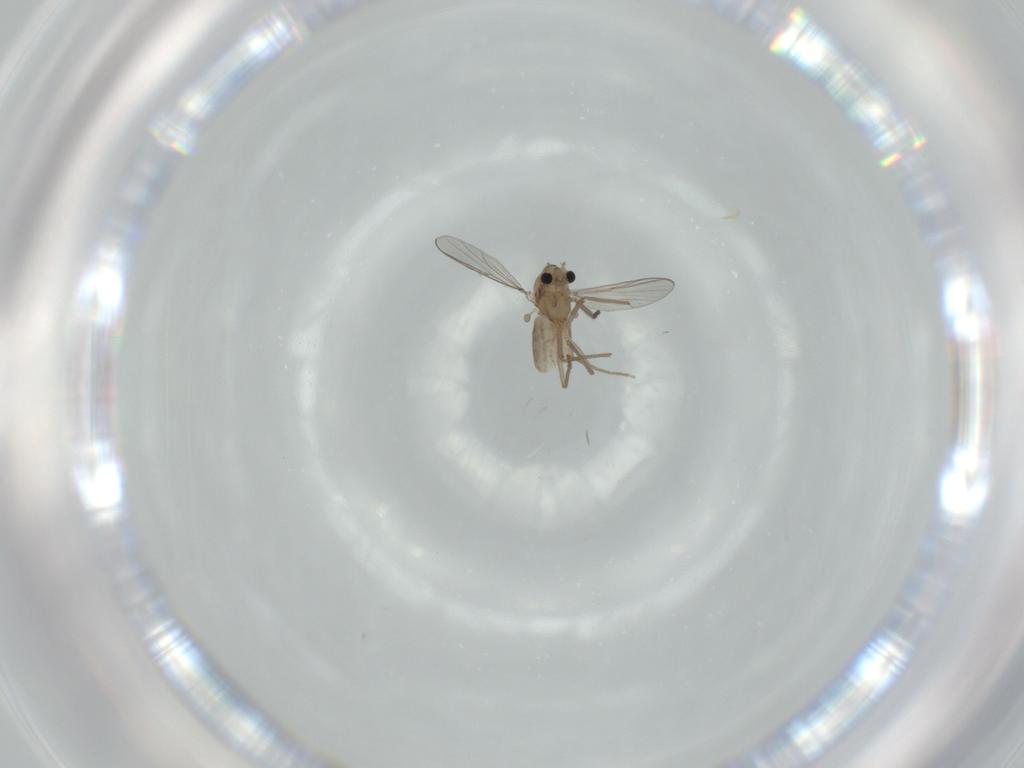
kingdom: Animalia
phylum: Arthropoda
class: Insecta
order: Diptera
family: Chironomidae
